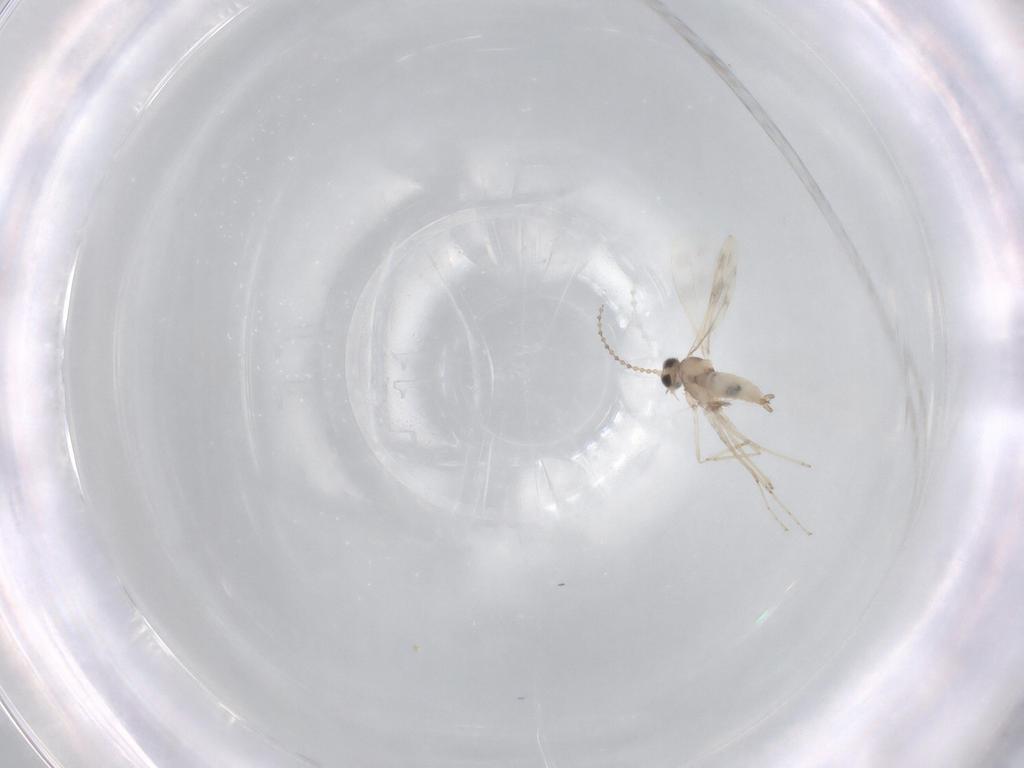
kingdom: Animalia
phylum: Arthropoda
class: Insecta
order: Diptera
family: Cecidomyiidae
